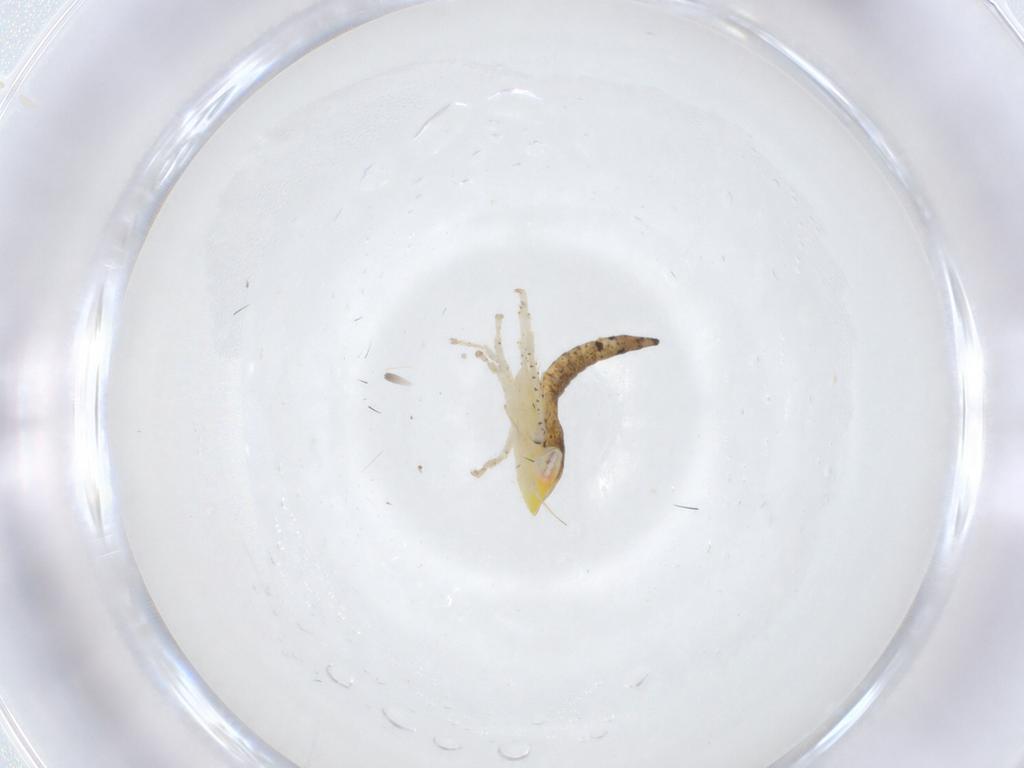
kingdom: Animalia
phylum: Arthropoda
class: Insecta
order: Hemiptera
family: Cicadellidae
